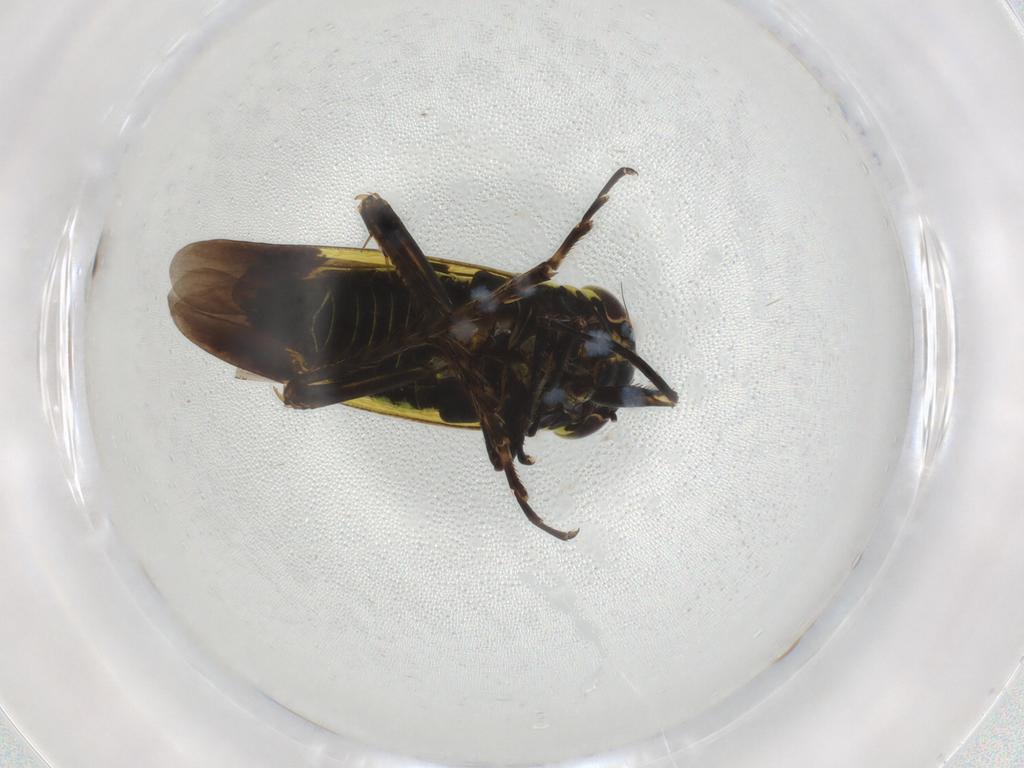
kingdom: Animalia
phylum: Arthropoda
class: Insecta
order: Hemiptera
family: Cicadellidae
